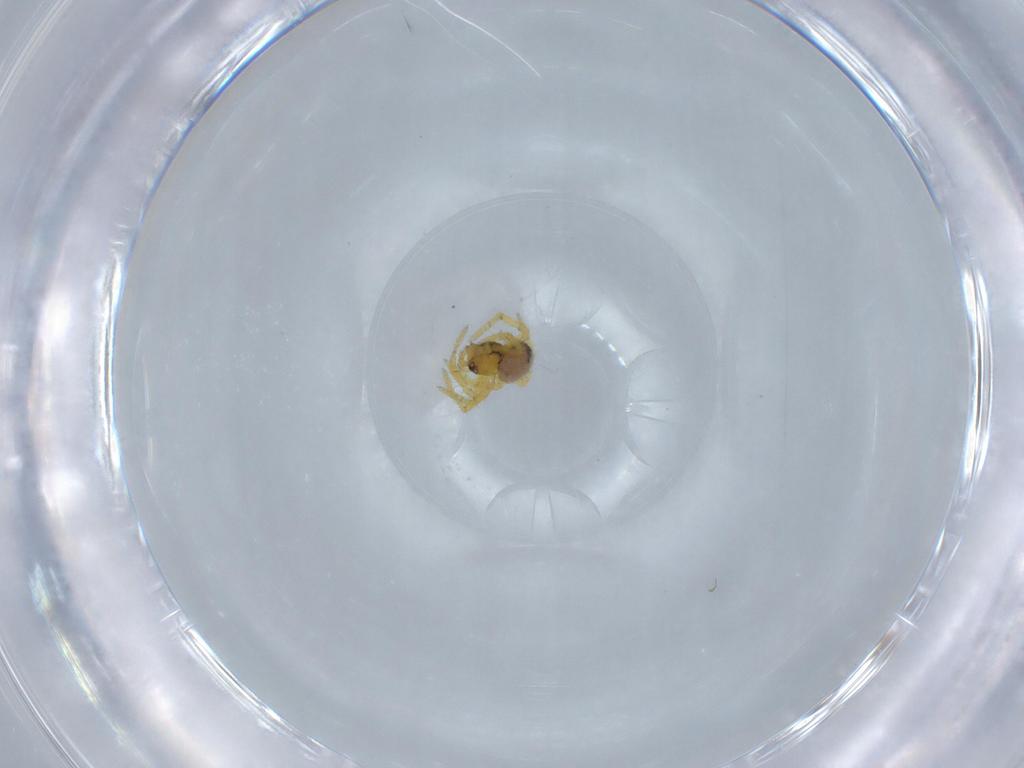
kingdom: Animalia
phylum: Arthropoda
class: Arachnida
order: Araneae
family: Theridiidae
